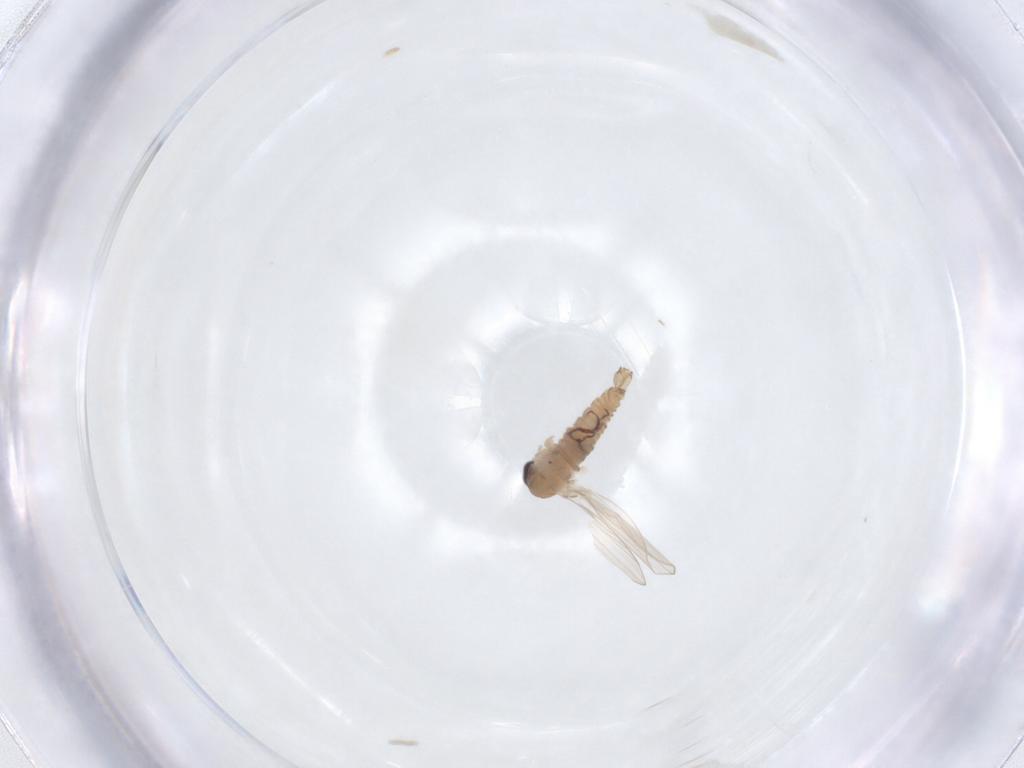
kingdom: Animalia
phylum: Arthropoda
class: Insecta
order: Diptera
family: Psychodidae
